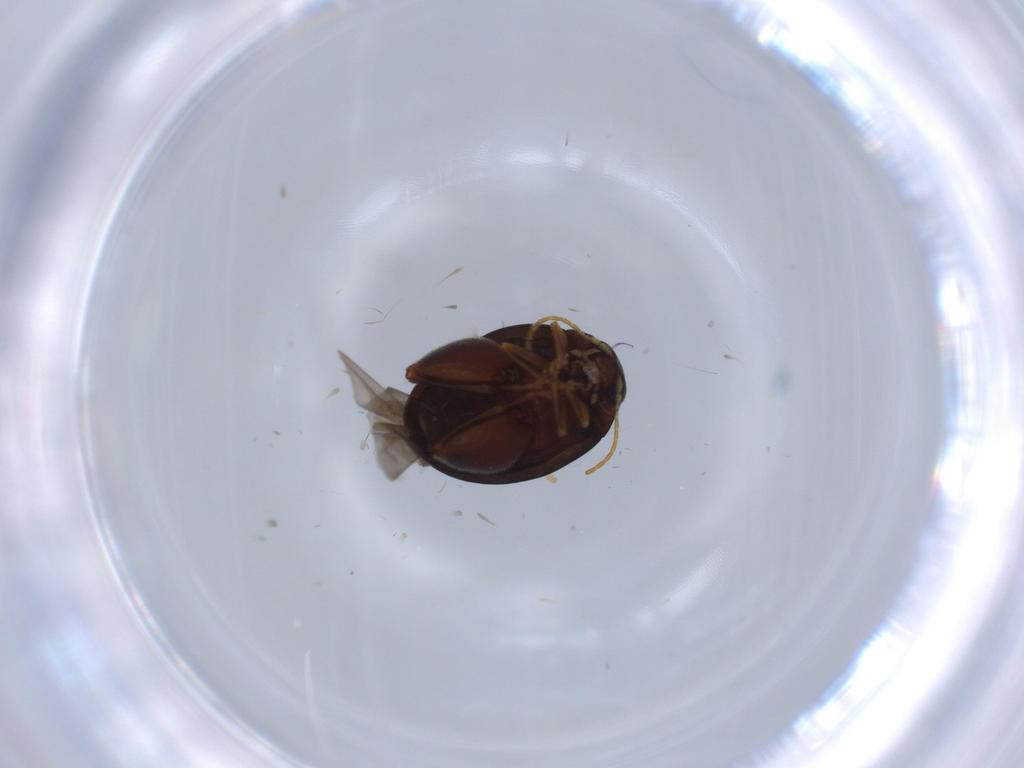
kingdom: Animalia
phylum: Arthropoda
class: Insecta
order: Coleoptera
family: Chrysomelidae
